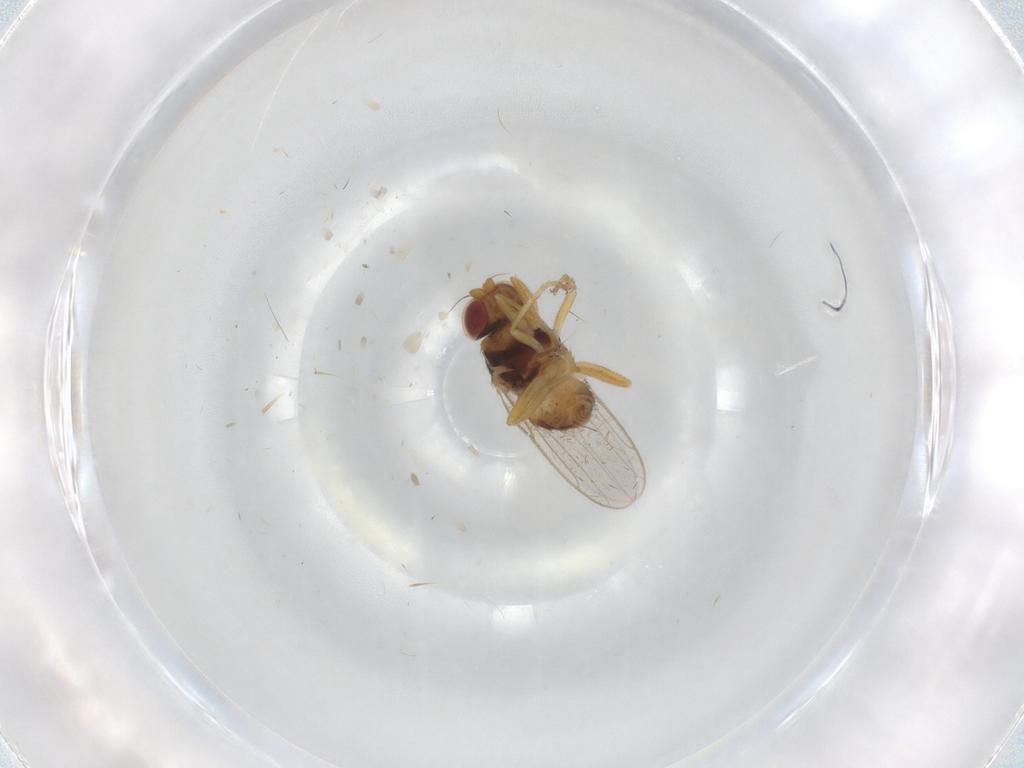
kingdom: Animalia
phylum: Arthropoda
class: Insecta
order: Diptera
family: Chloropidae
